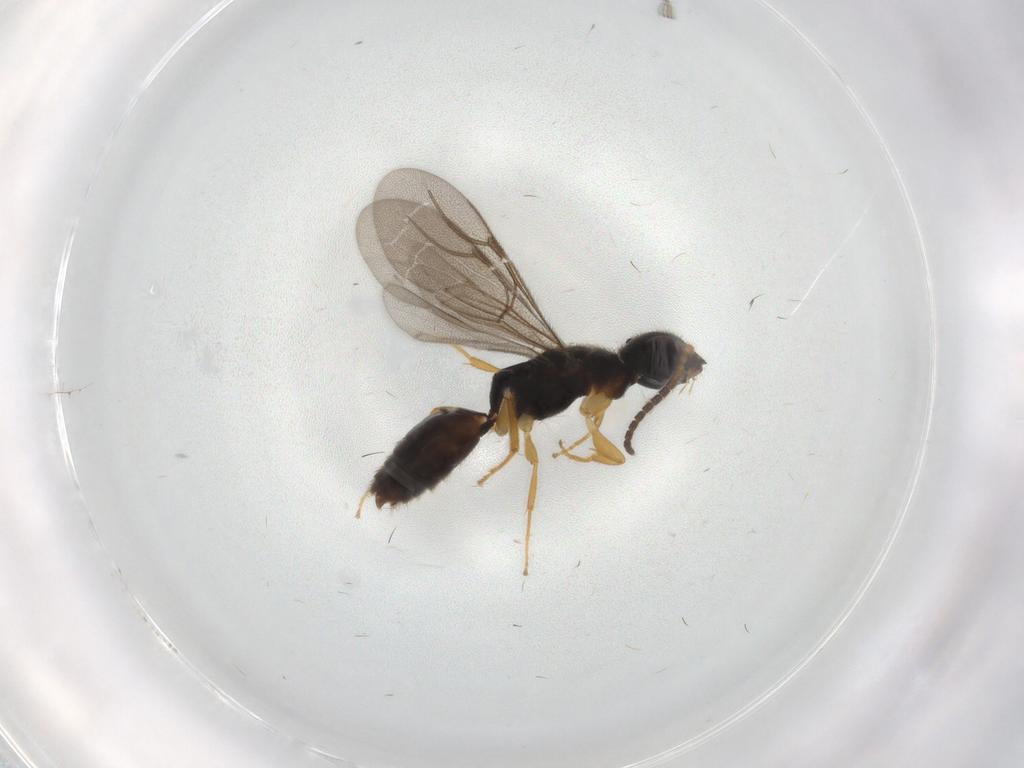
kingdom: Animalia
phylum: Arthropoda
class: Insecta
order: Hymenoptera
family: Bethylidae
